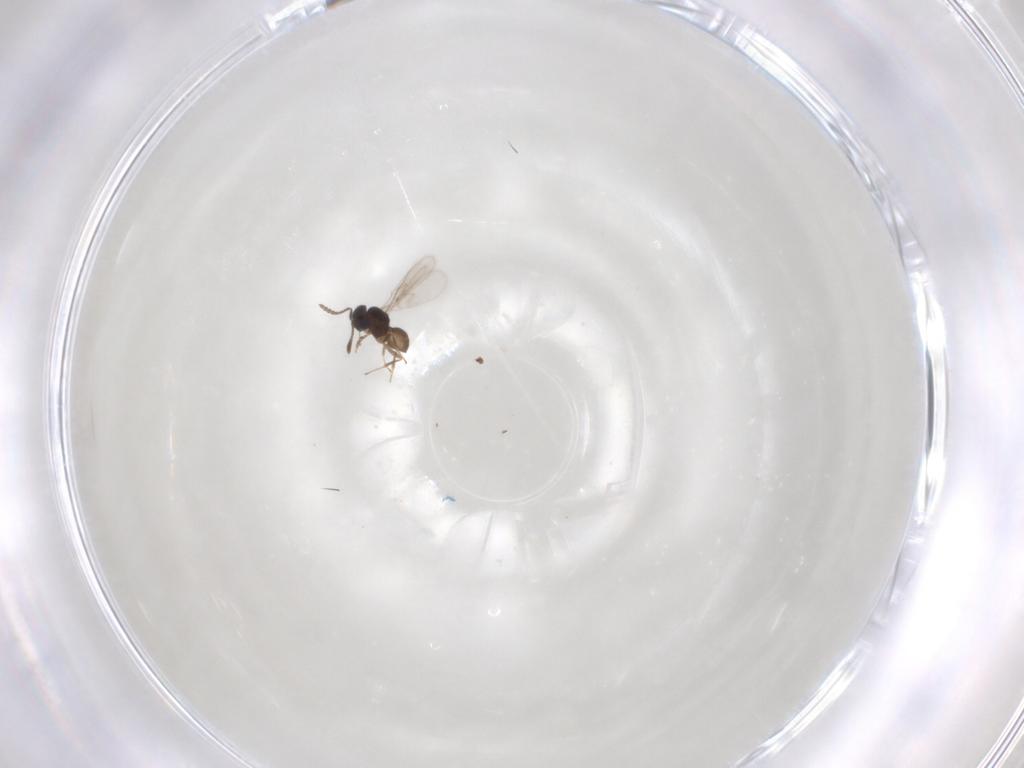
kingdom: Animalia
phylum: Arthropoda
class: Insecta
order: Hymenoptera
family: Scelionidae
